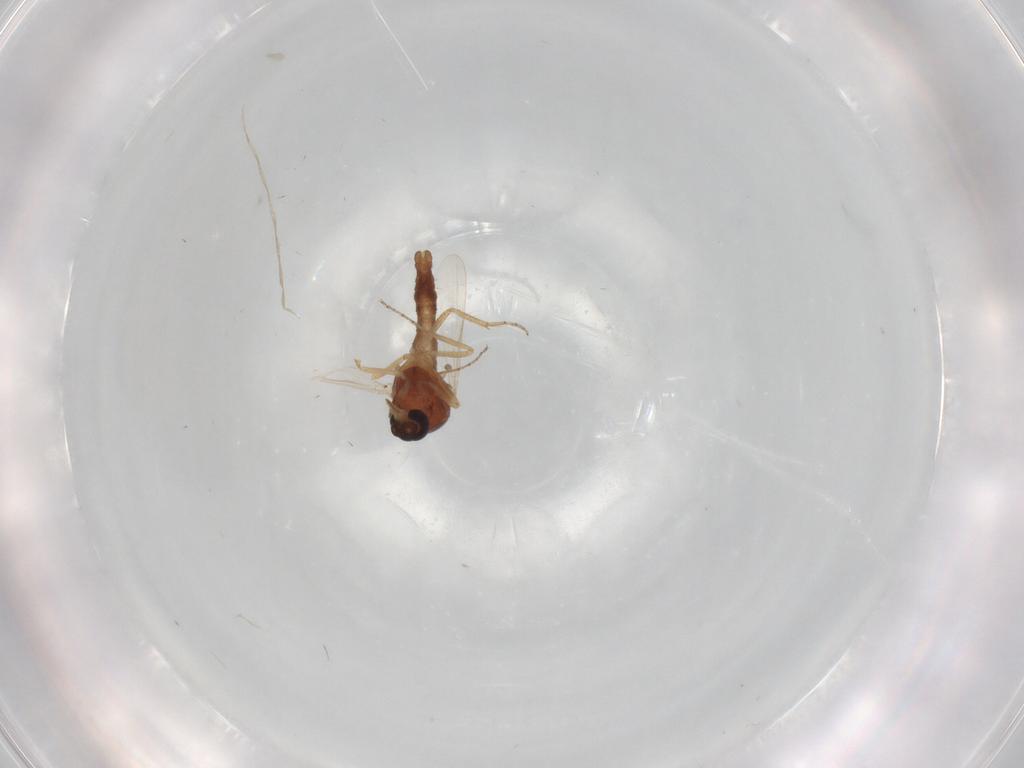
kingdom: Animalia
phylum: Arthropoda
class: Insecta
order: Diptera
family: Ceratopogonidae
